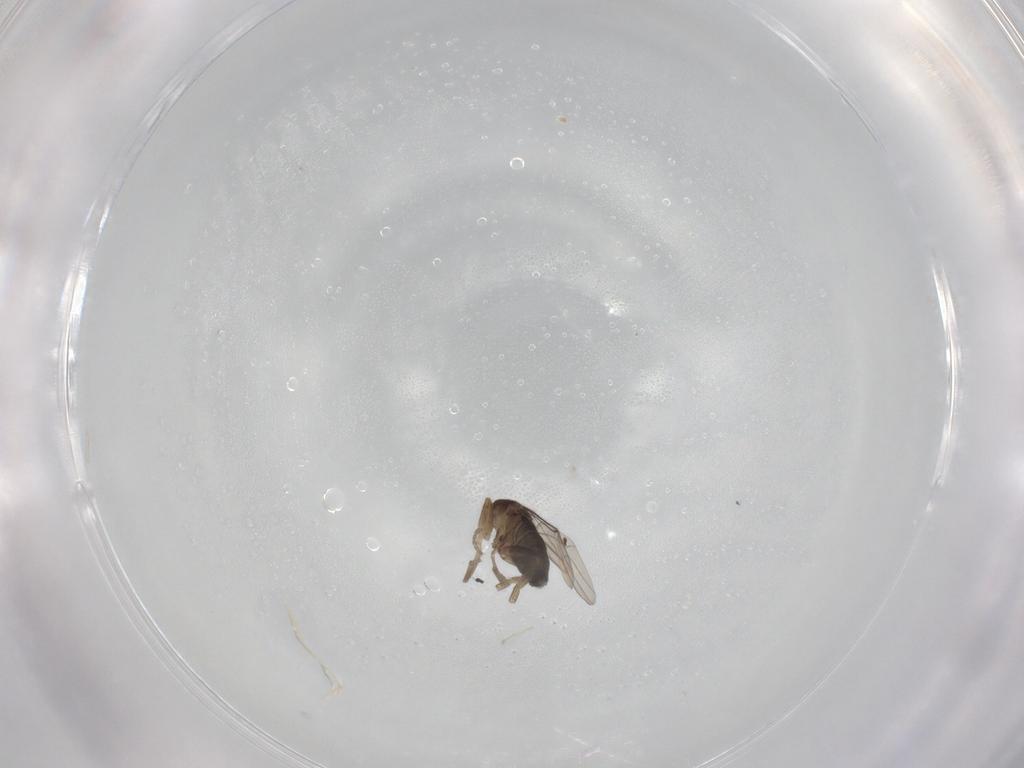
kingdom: Animalia
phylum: Arthropoda
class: Insecta
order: Diptera
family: Phoridae
